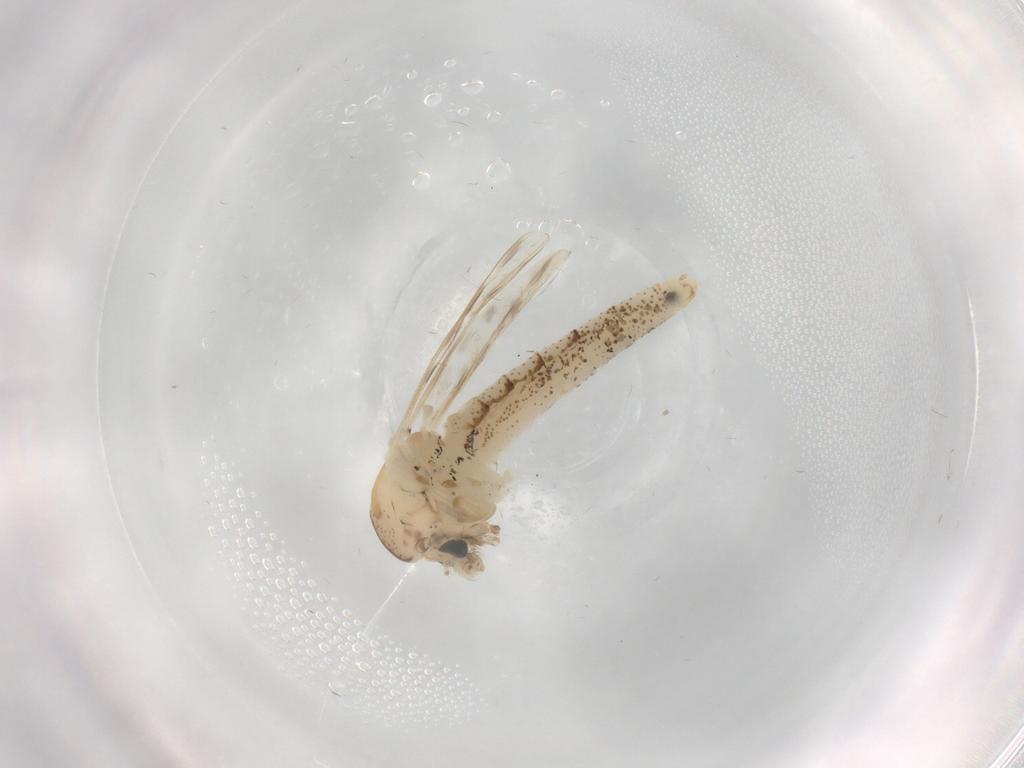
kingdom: Animalia
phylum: Arthropoda
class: Insecta
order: Diptera
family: Chaoboridae
